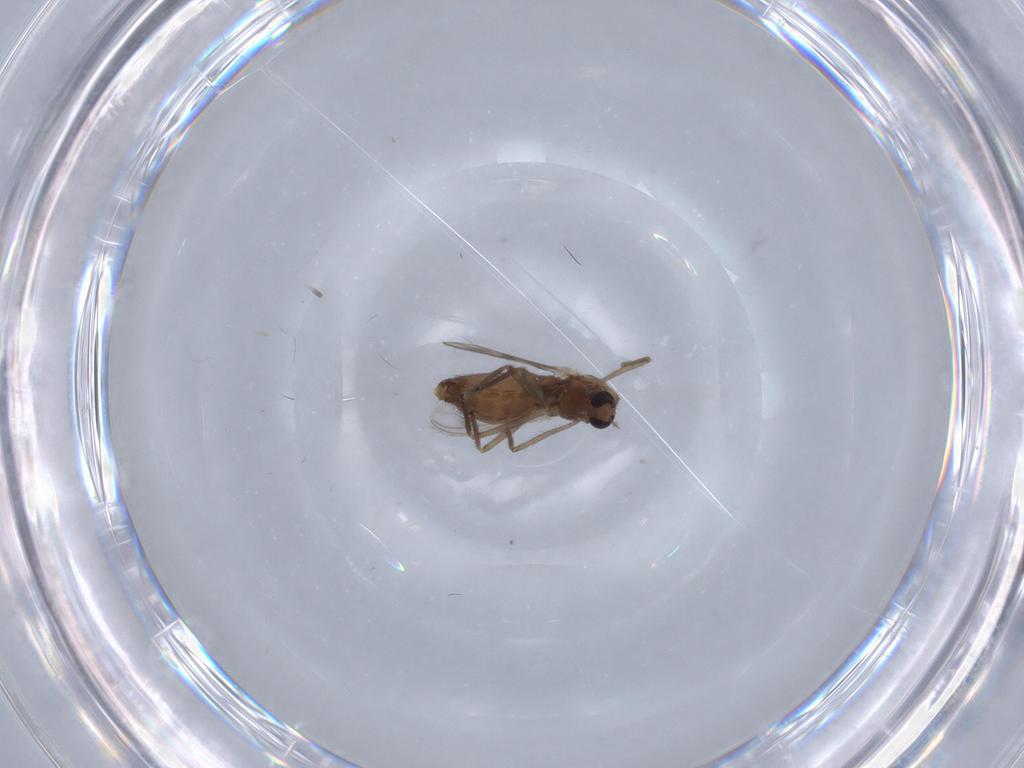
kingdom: Animalia
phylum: Arthropoda
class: Insecta
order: Diptera
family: Chironomidae
